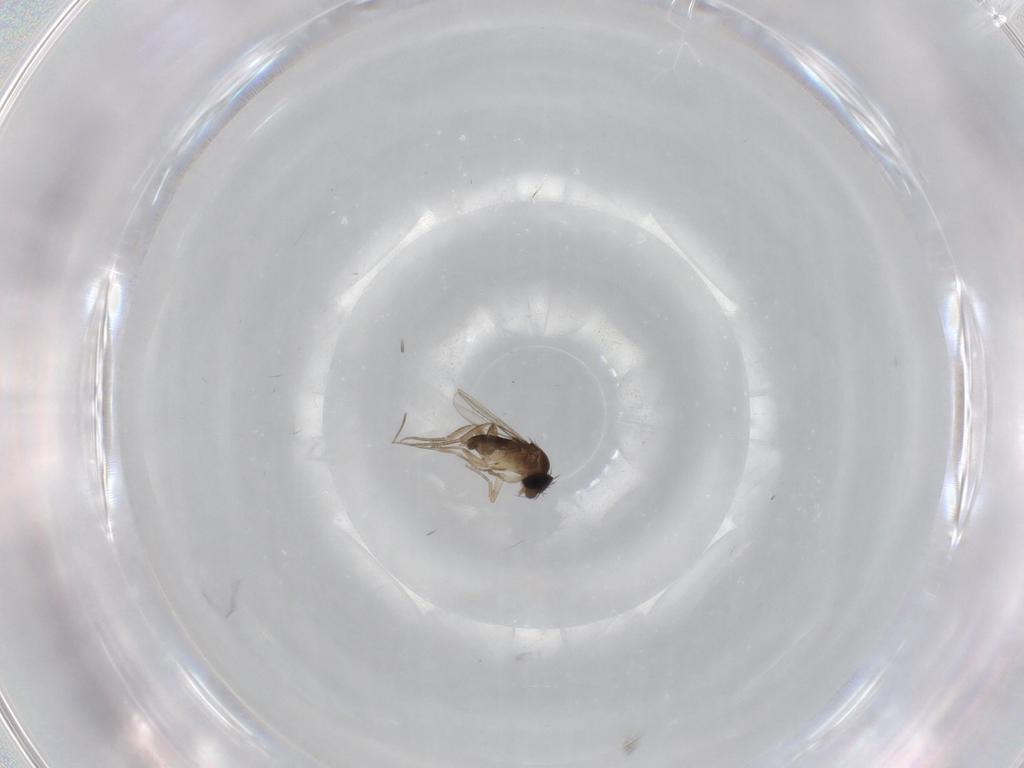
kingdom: Animalia
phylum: Arthropoda
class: Insecta
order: Diptera
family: Phoridae
